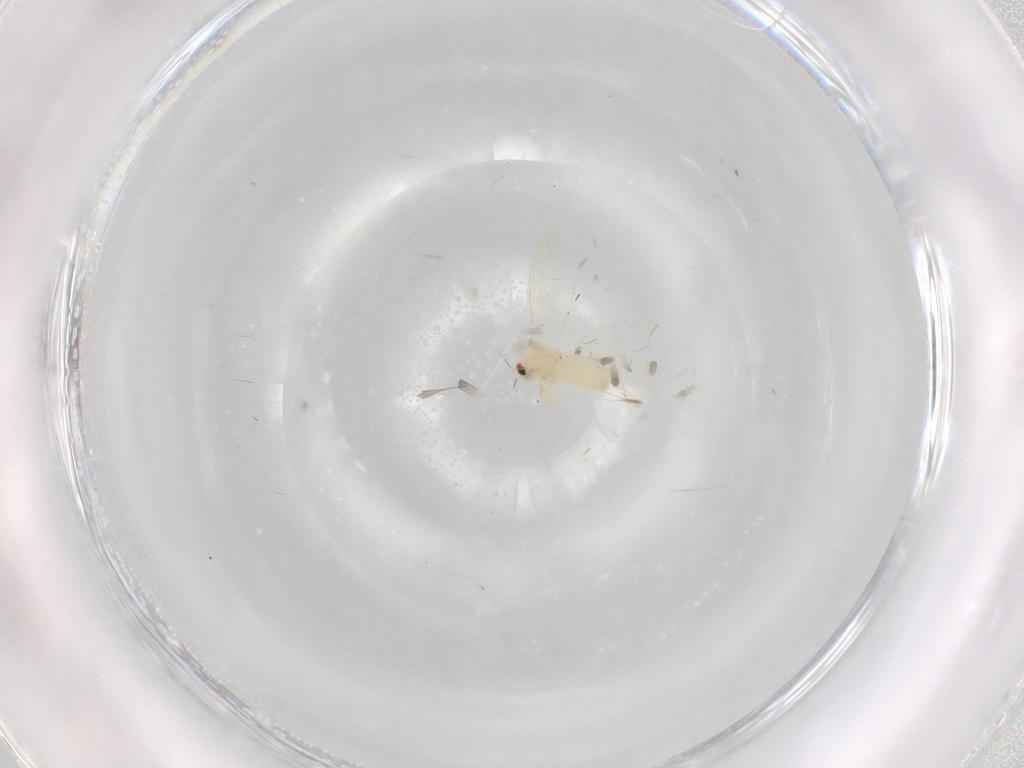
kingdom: Animalia
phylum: Arthropoda
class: Insecta
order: Hemiptera
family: Aleyrodidae
